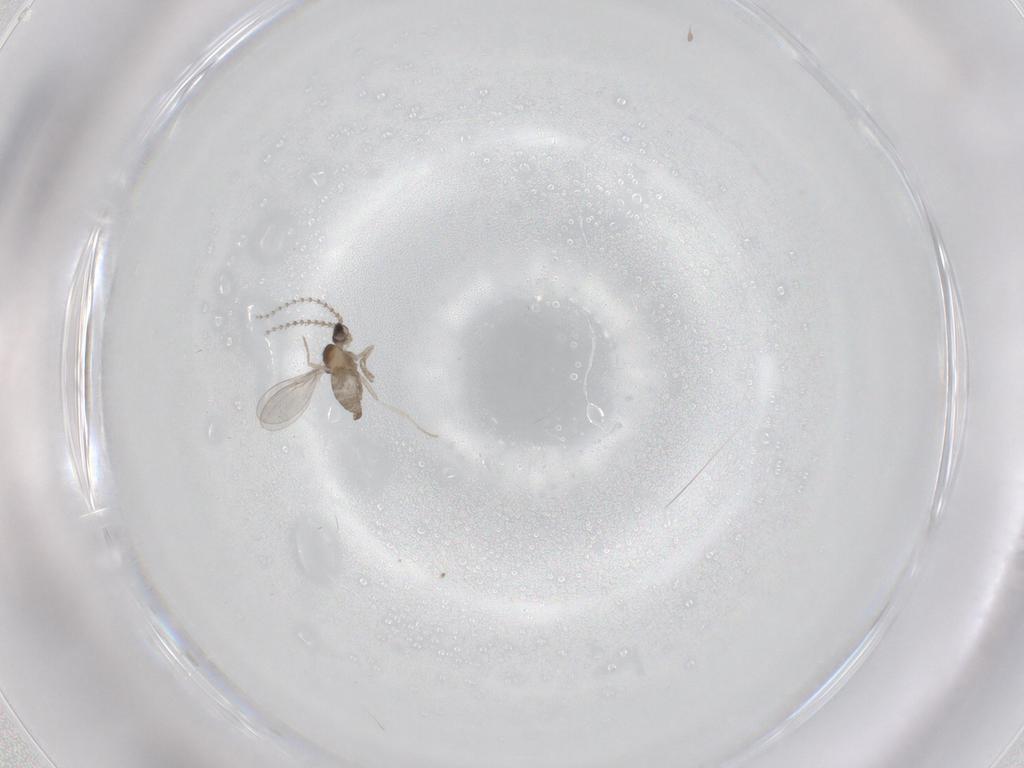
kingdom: Animalia
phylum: Arthropoda
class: Insecta
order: Diptera
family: Cecidomyiidae
